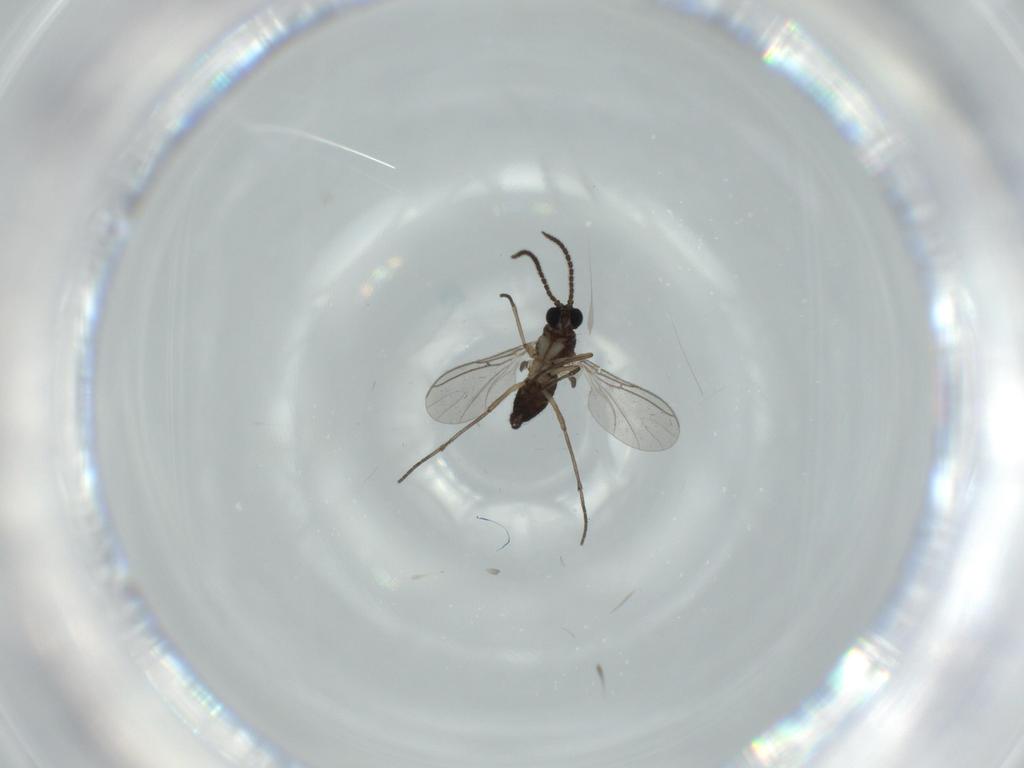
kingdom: Animalia
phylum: Arthropoda
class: Insecta
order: Diptera
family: Sciaridae
